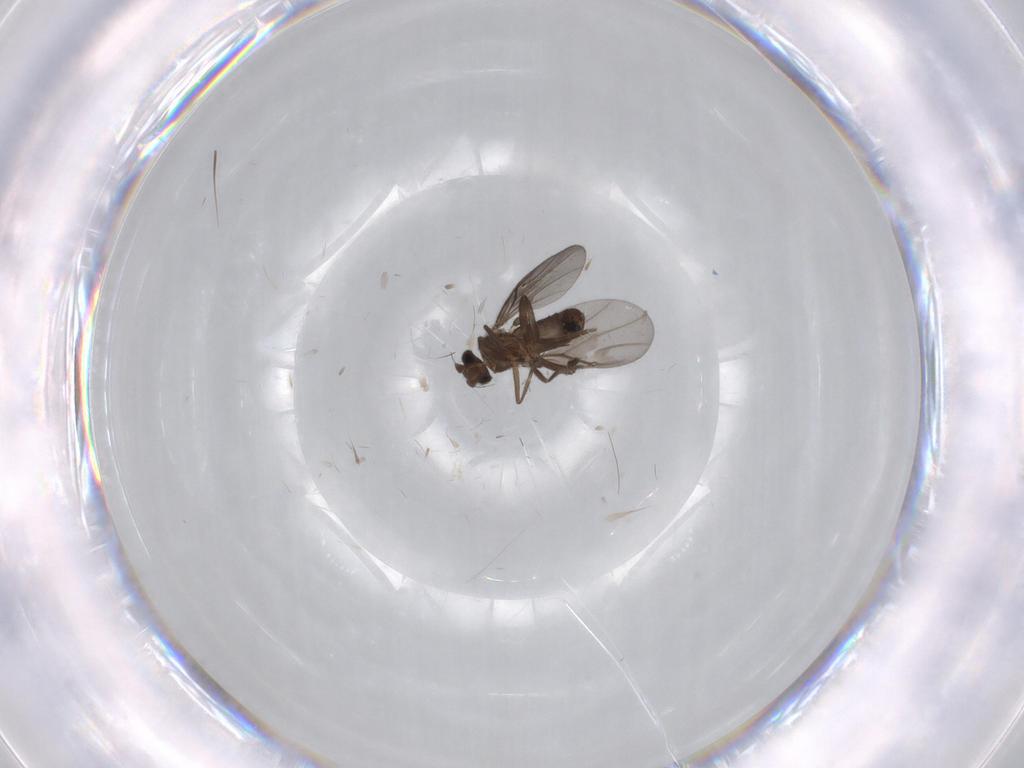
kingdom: Animalia
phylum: Arthropoda
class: Insecta
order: Diptera
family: Phoridae
